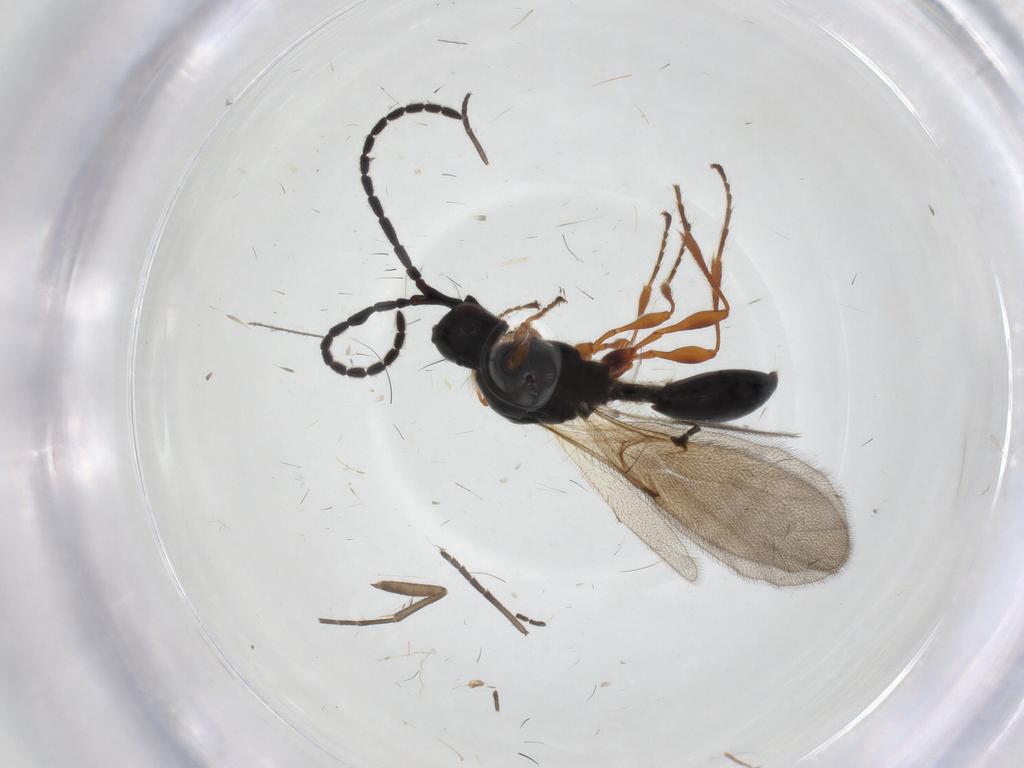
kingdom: Animalia
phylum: Arthropoda
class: Insecta
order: Hymenoptera
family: Diapriidae
